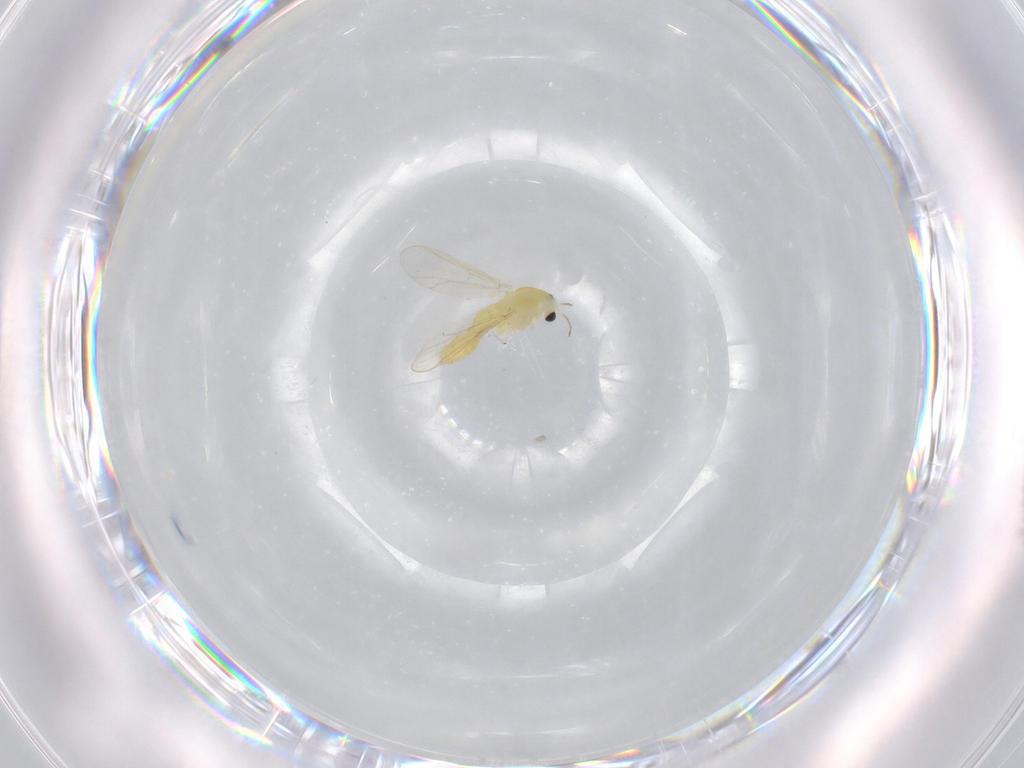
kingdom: Animalia
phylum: Arthropoda
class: Insecta
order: Diptera
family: Chironomidae
